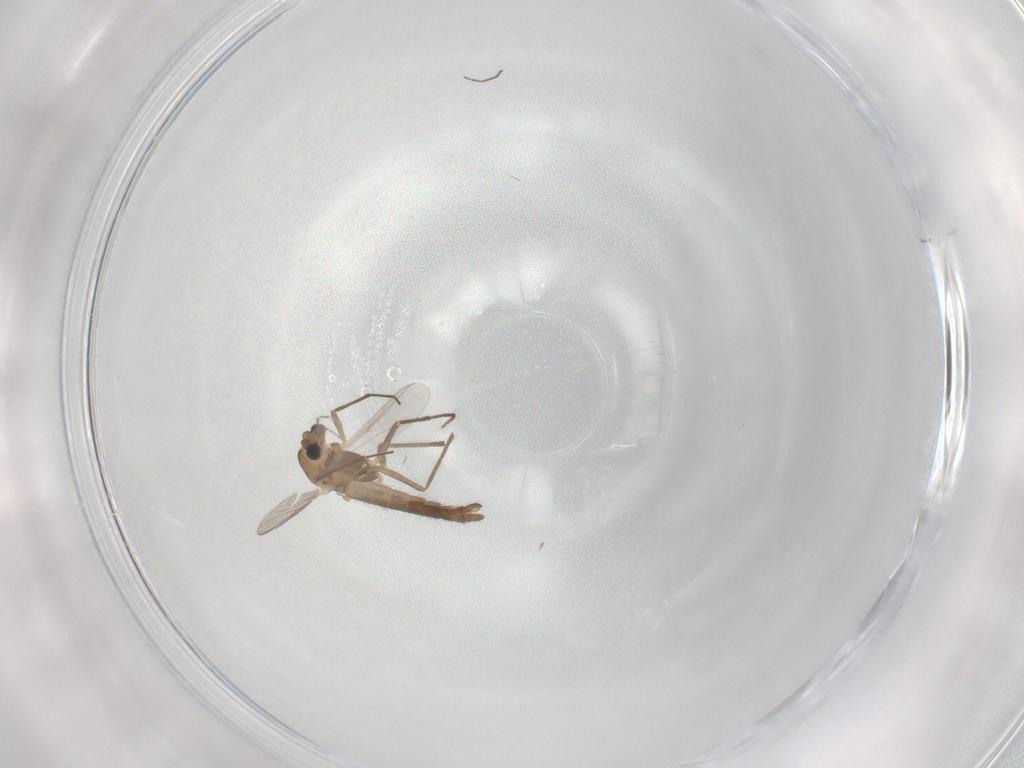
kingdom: Animalia
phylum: Arthropoda
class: Insecta
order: Diptera
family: Chironomidae
